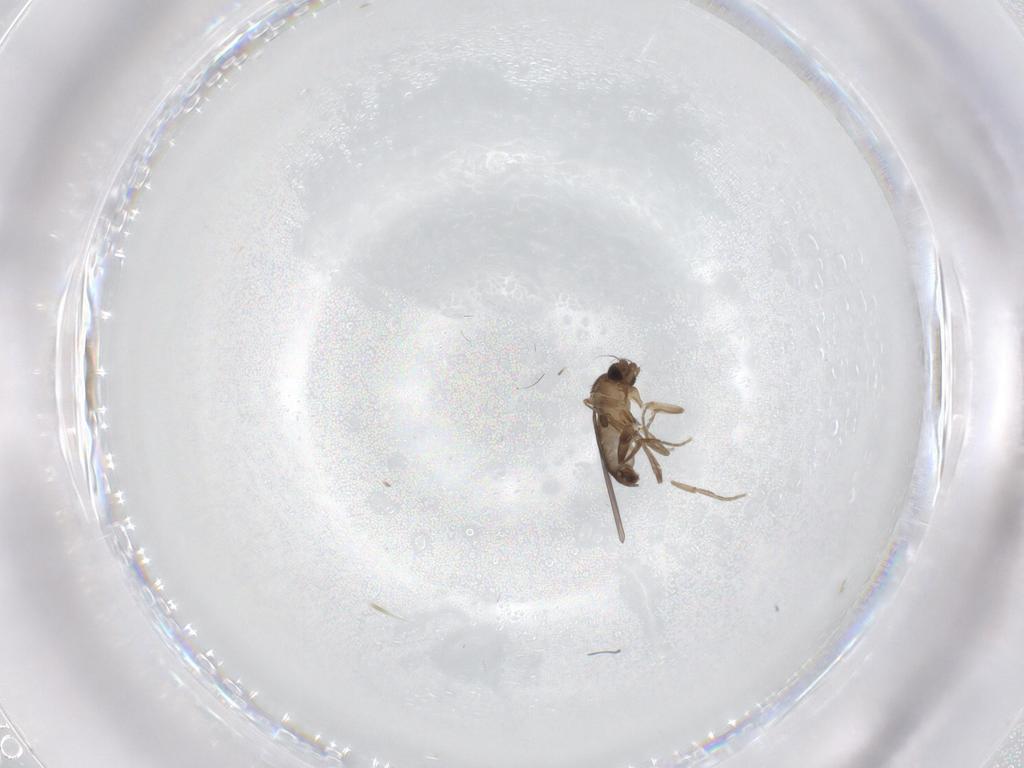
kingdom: Animalia
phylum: Arthropoda
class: Insecta
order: Diptera
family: Phoridae
